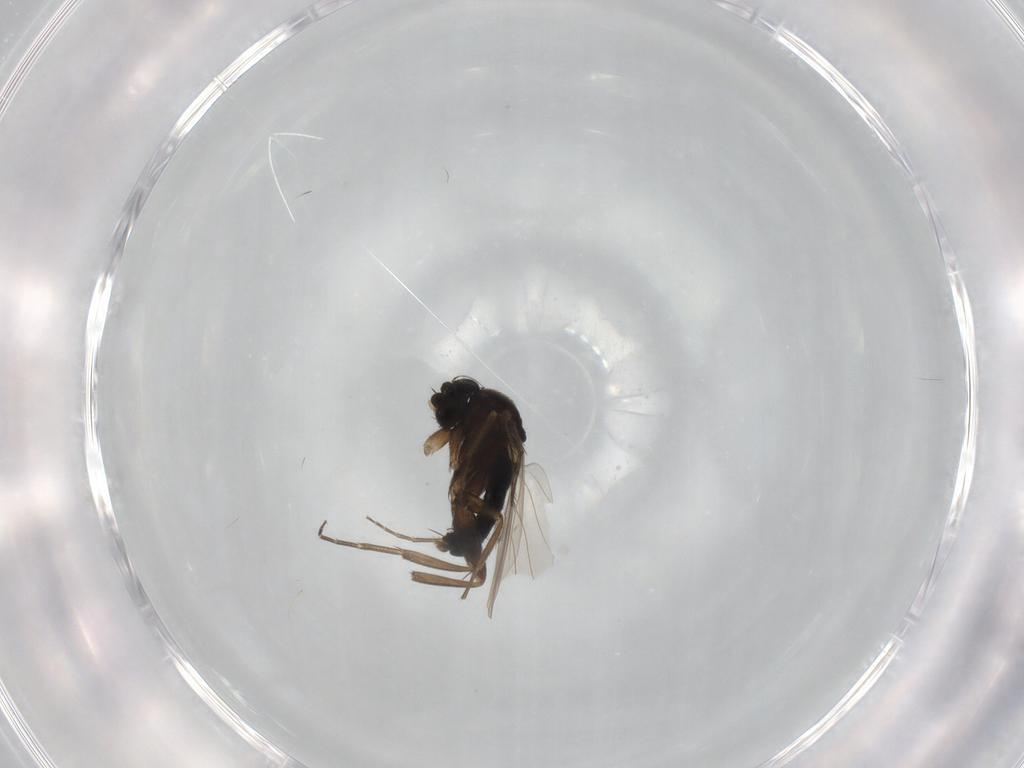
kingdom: Animalia
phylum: Arthropoda
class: Insecta
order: Diptera
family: Phoridae
